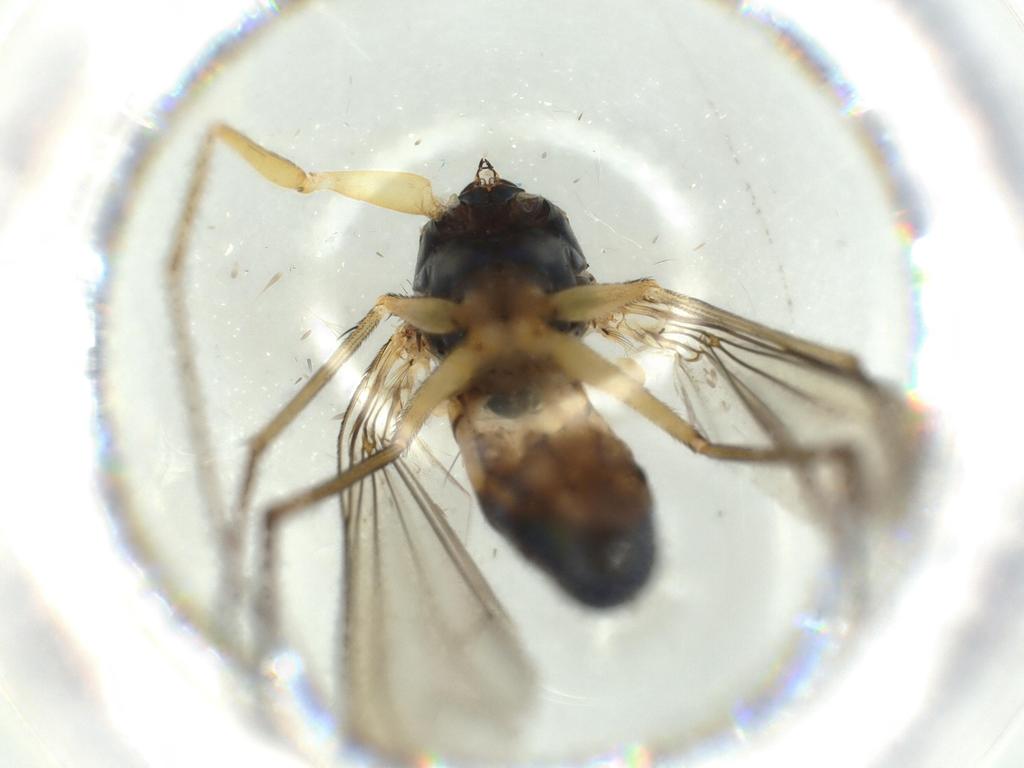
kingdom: Animalia
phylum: Arthropoda
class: Insecta
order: Diptera
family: Dolichopodidae
